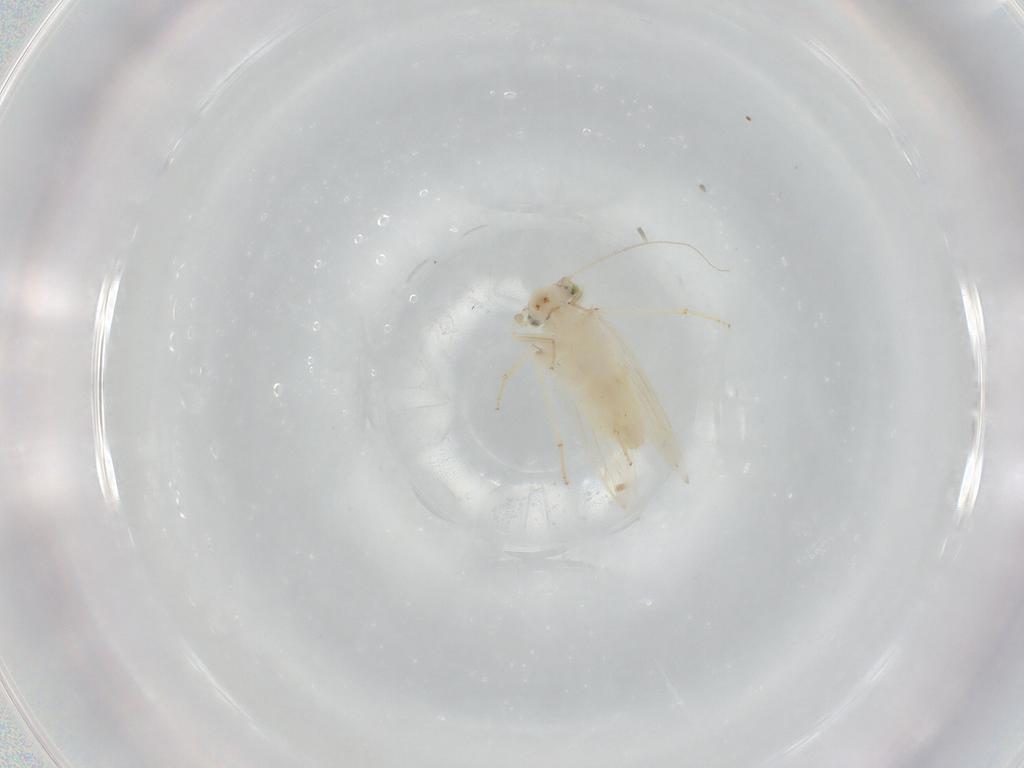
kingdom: Animalia
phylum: Arthropoda
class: Insecta
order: Psocodea
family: Lepidopsocidae
